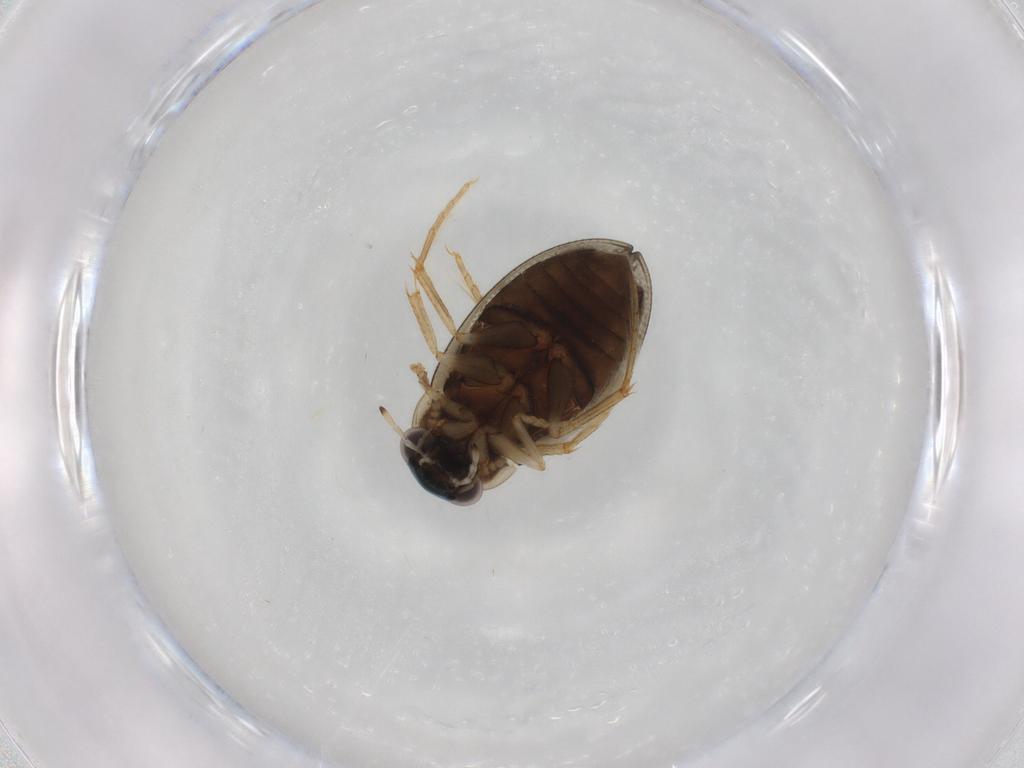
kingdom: Animalia
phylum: Arthropoda
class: Insecta
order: Coleoptera
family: Hydrophilidae
